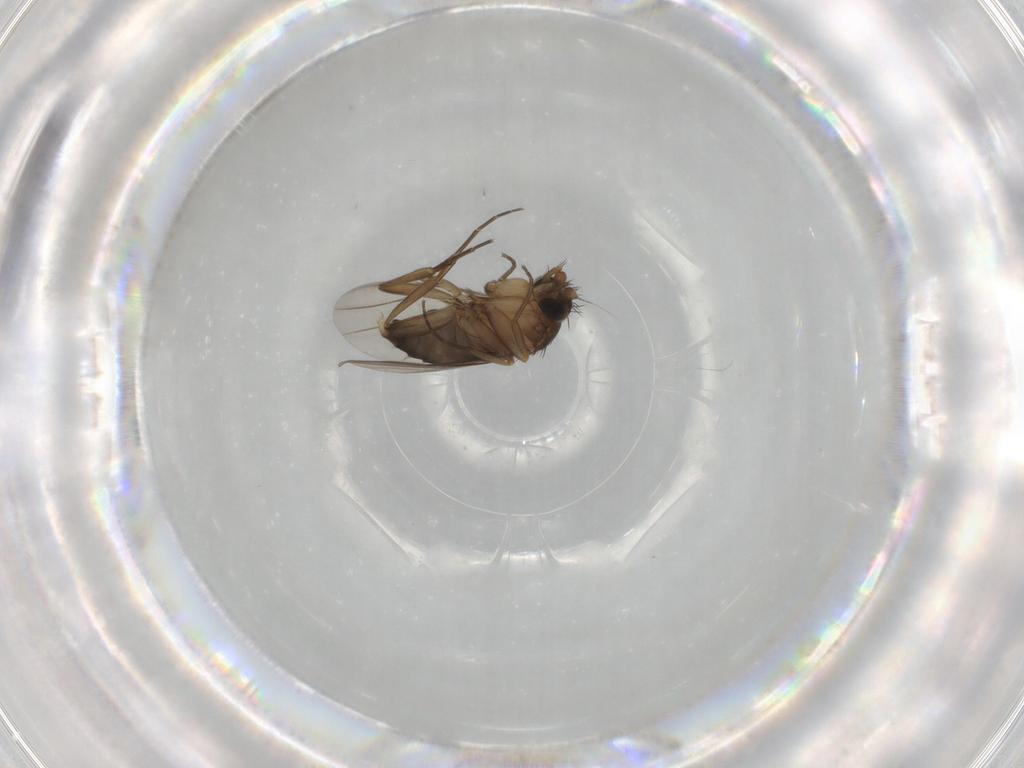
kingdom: Animalia
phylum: Arthropoda
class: Insecta
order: Diptera
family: Phoridae
